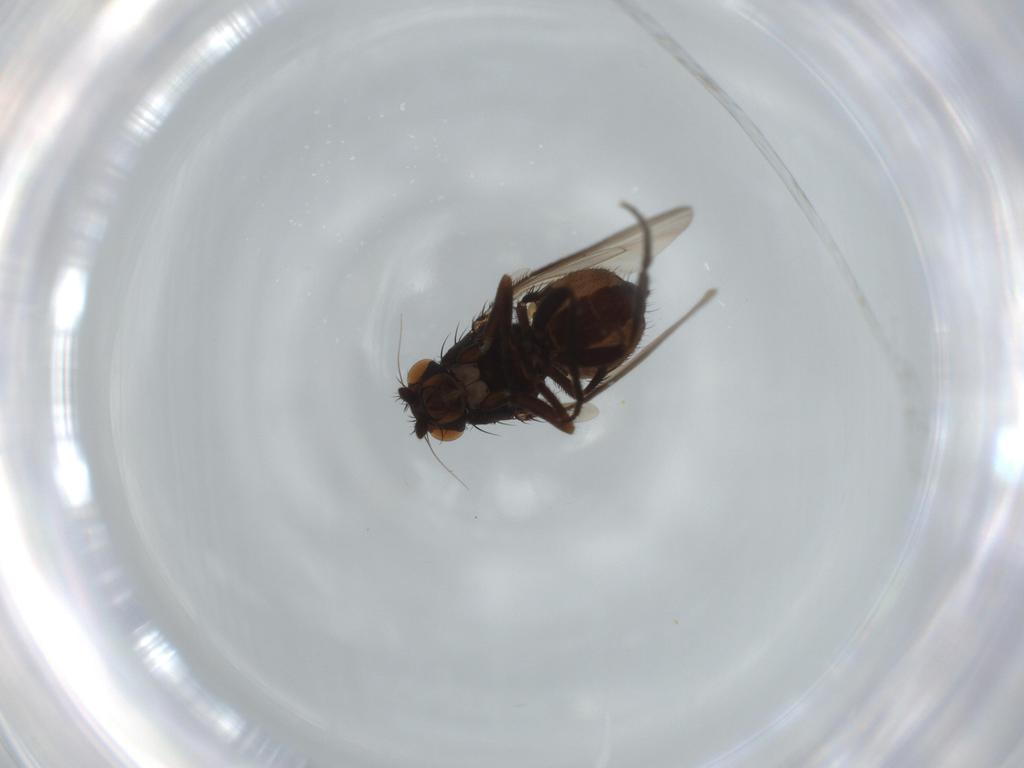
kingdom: Animalia
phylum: Arthropoda
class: Insecta
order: Diptera
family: Sphaeroceridae
